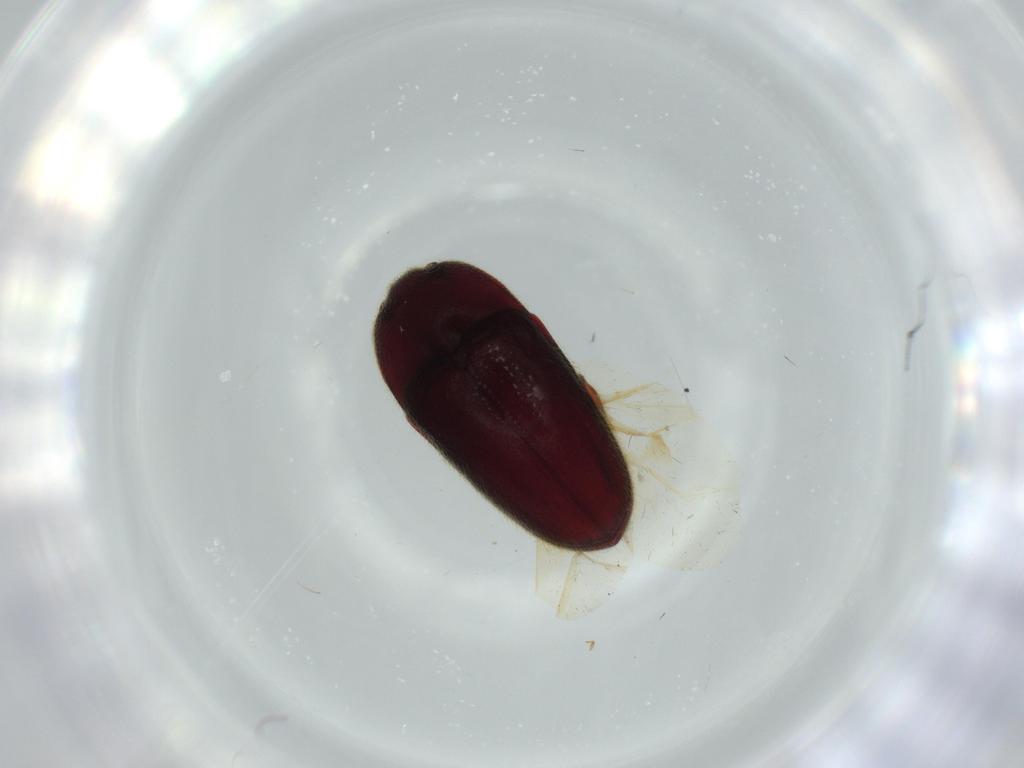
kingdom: Animalia
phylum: Arthropoda
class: Insecta
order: Coleoptera
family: Throscidae
